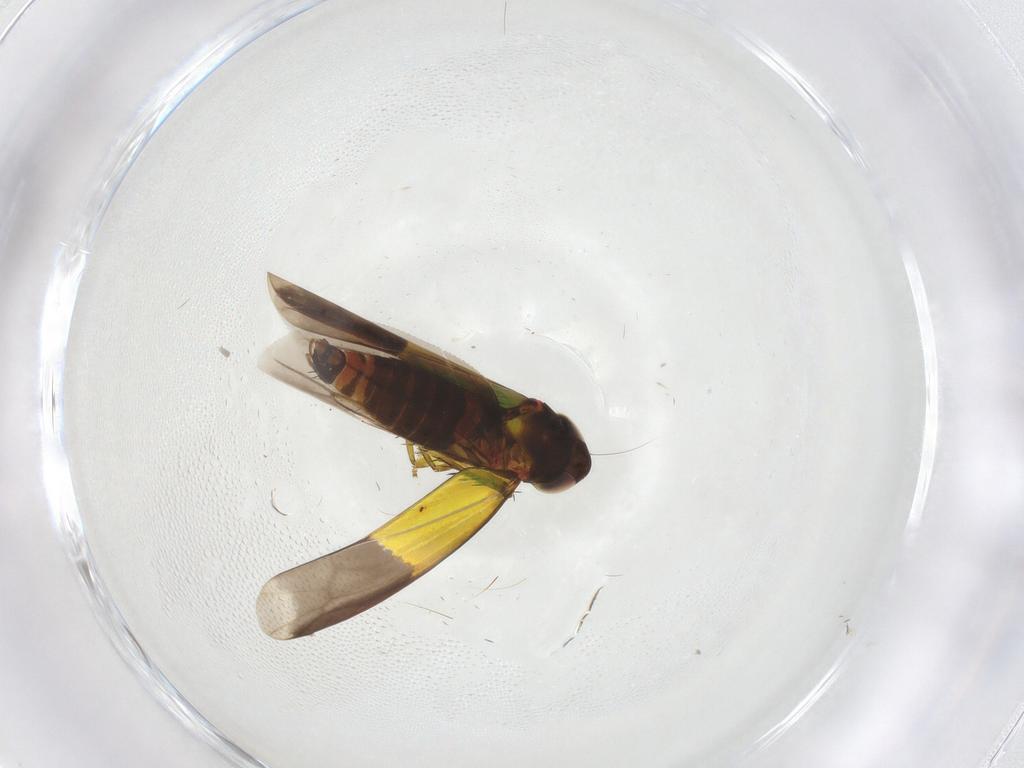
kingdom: Animalia
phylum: Arthropoda
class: Insecta
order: Hemiptera
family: Cicadellidae
